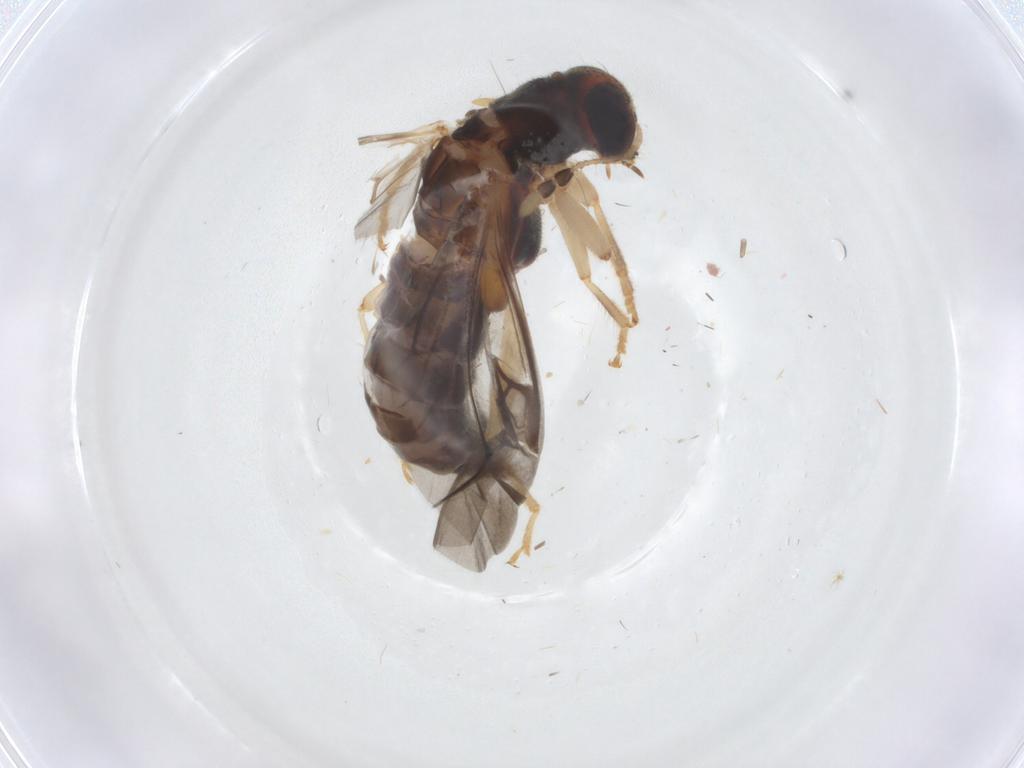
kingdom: Animalia
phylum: Arthropoda
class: Insecta
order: Coleoptera
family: Cleridae
